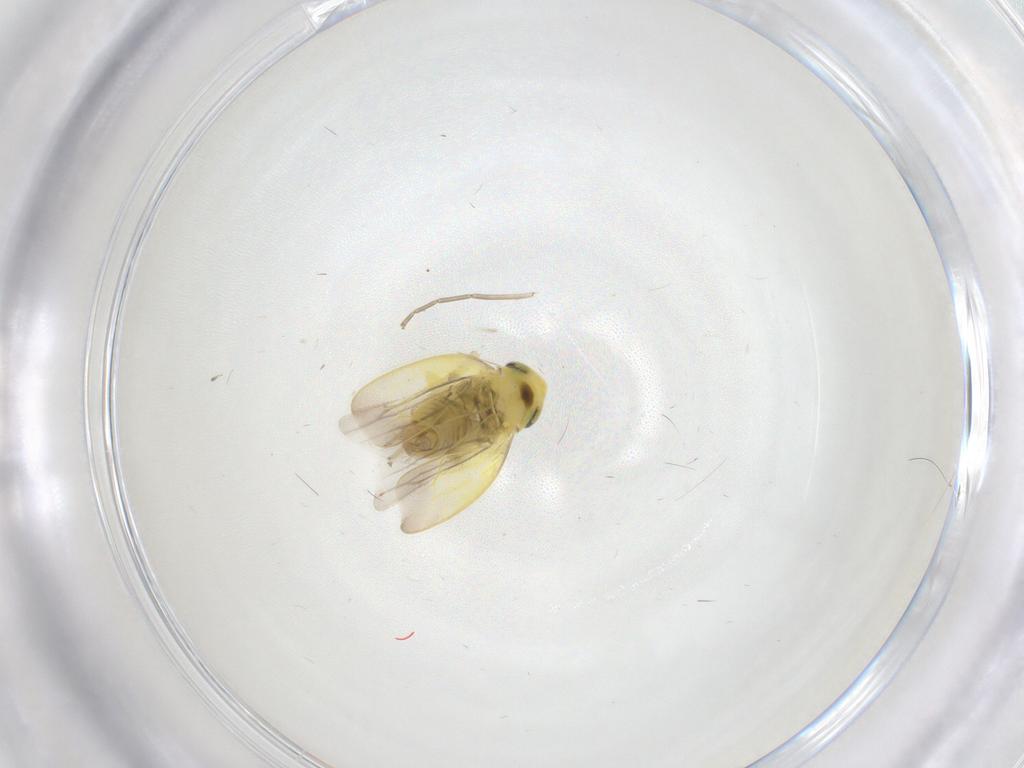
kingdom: Animalia
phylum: Arthropoda
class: Insecta
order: Hemiptera
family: Cicadellidae
